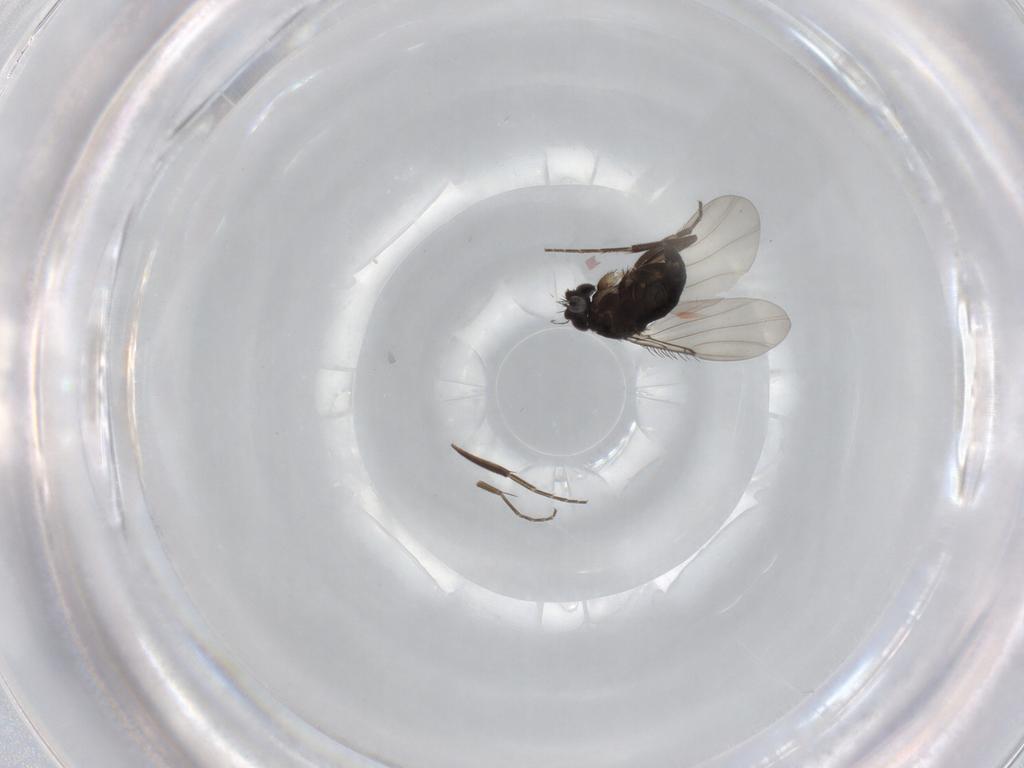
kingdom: Animalia
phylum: Arthropoda
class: Insecta
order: Diptera
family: Phoridae
